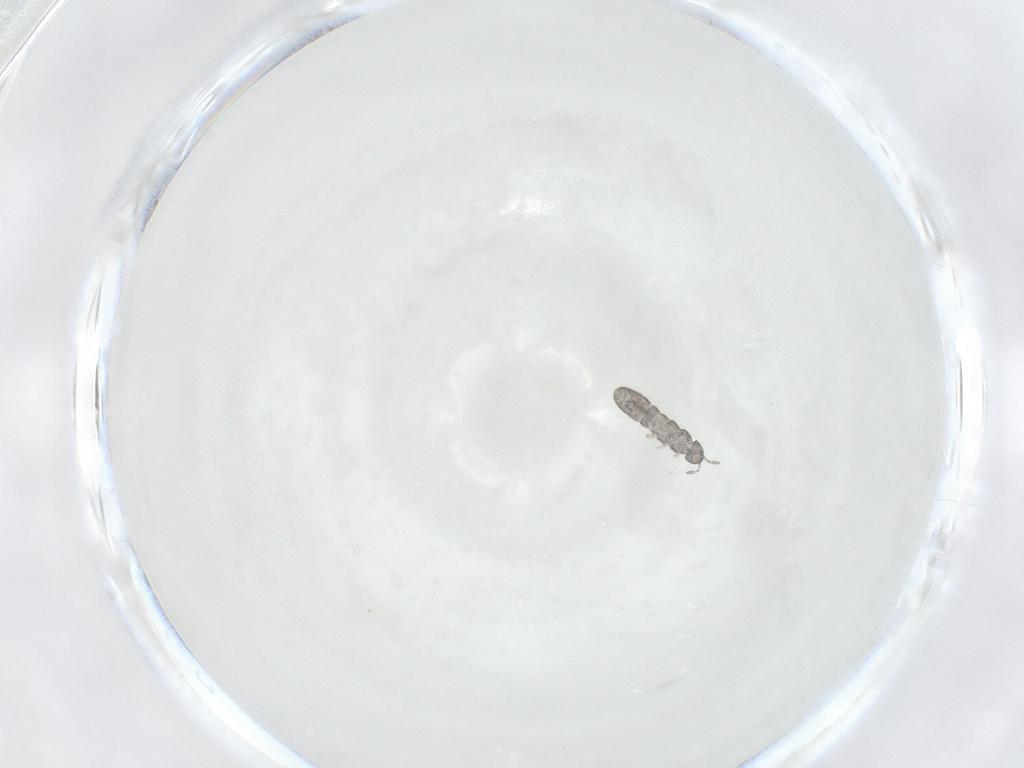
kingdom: Animalia
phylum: Arthropoda
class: Collembola
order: Entomobryomorpha
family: Isotomidae
